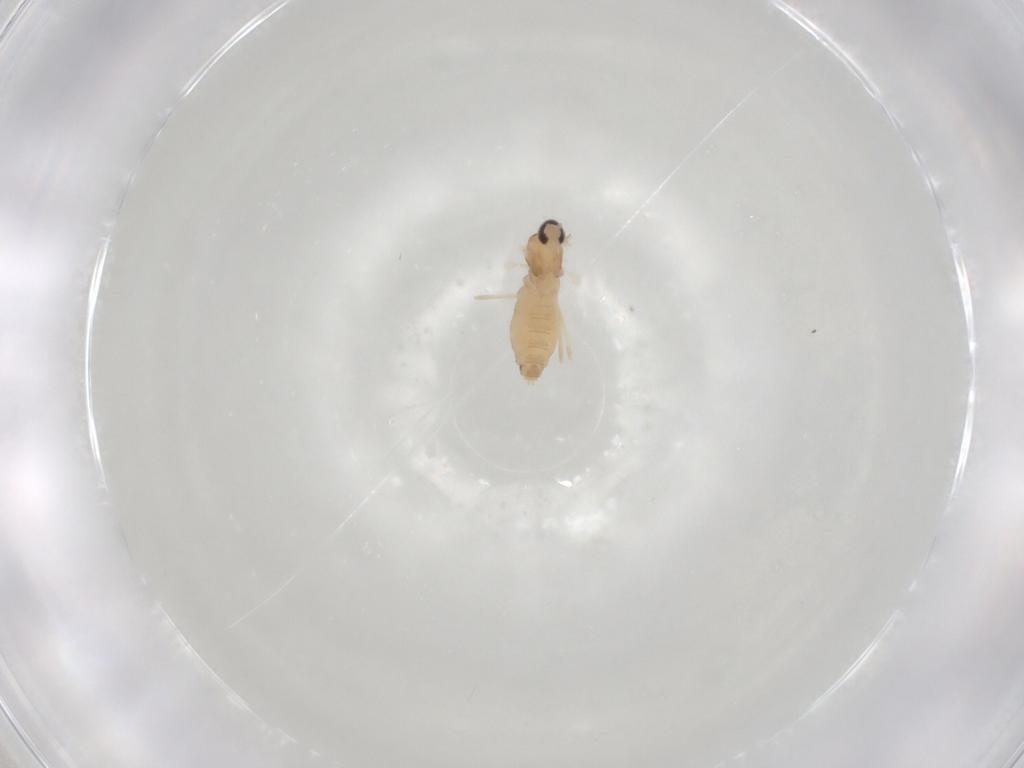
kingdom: Animalia
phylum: Arthropoda
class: Insecta
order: Diptera
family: Cecidomyiidae
